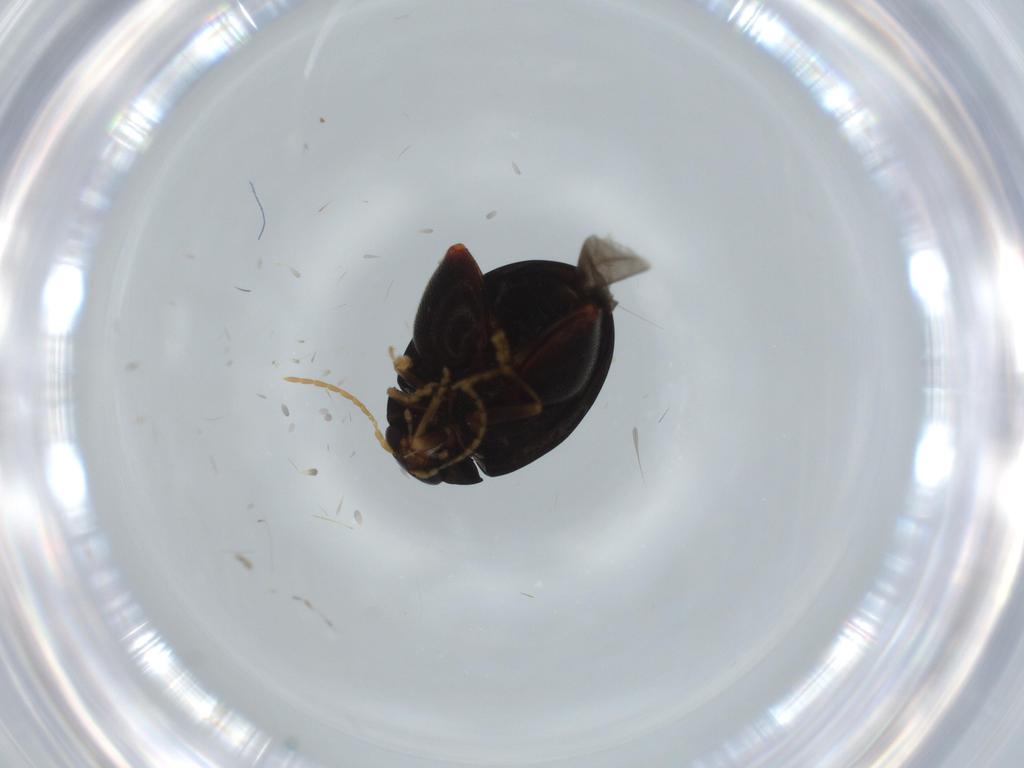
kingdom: Animalia
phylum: Arthropoda
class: Insecta
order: Coleoptera
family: Chrysomelidae
